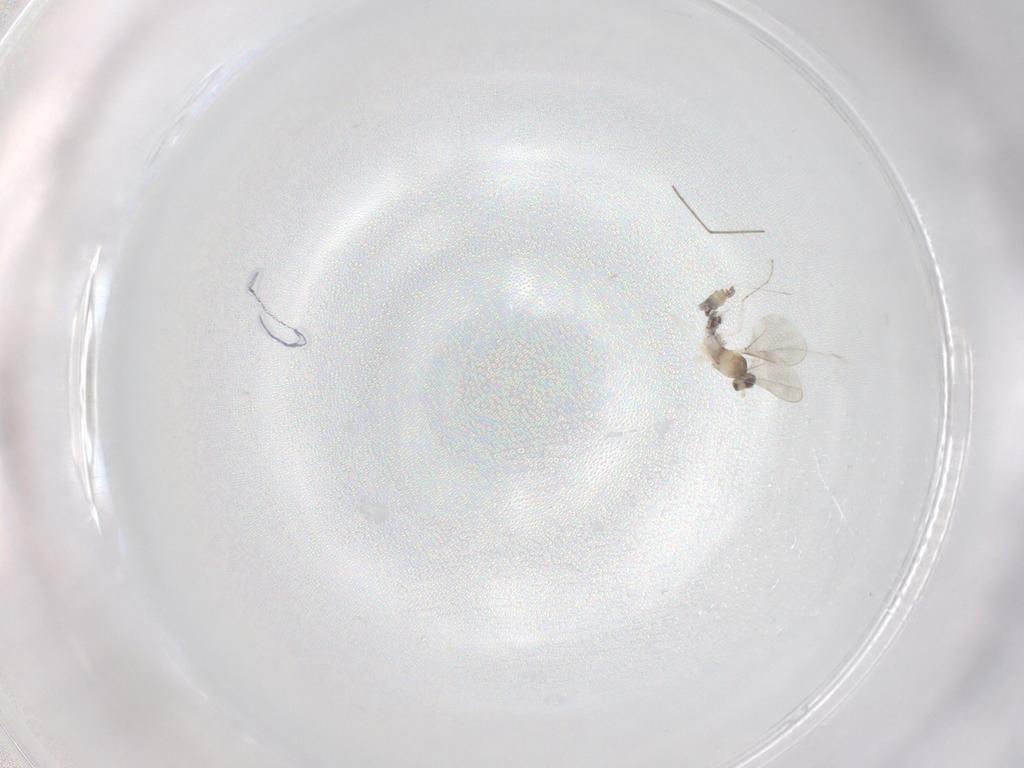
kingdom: Animalia
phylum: Arthropoda
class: Insecta
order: Diptera
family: Cecidomyiidae
